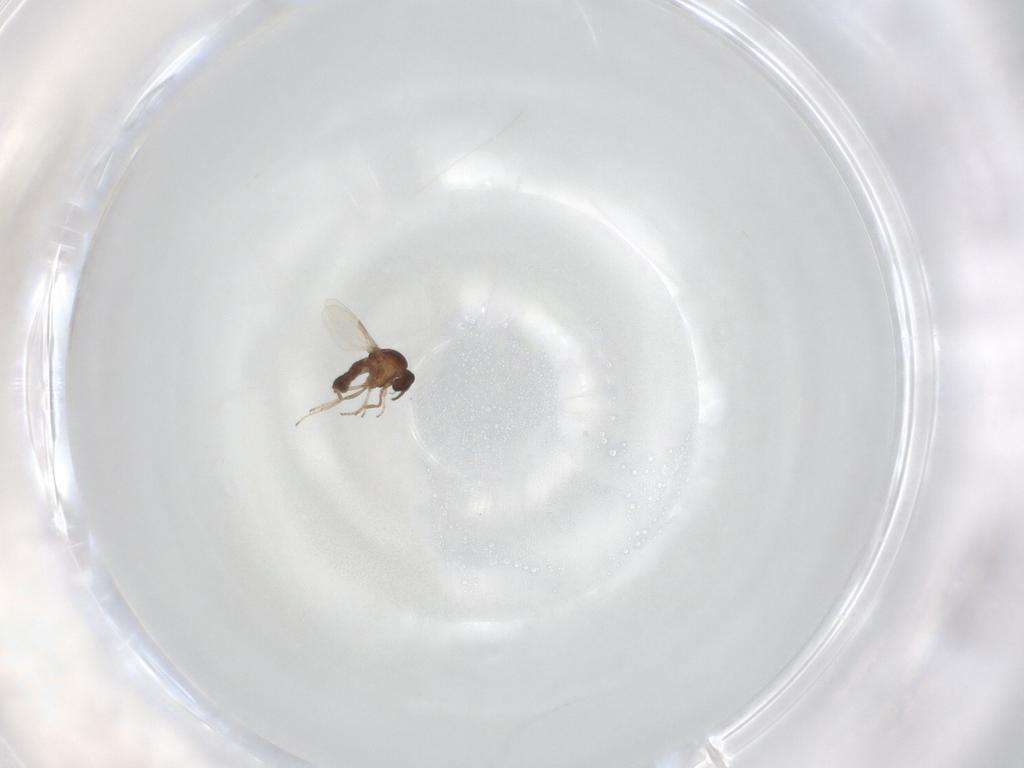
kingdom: Animalia
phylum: Arthropoda
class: Insecta
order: Diptera
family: Ceratopogonidae
